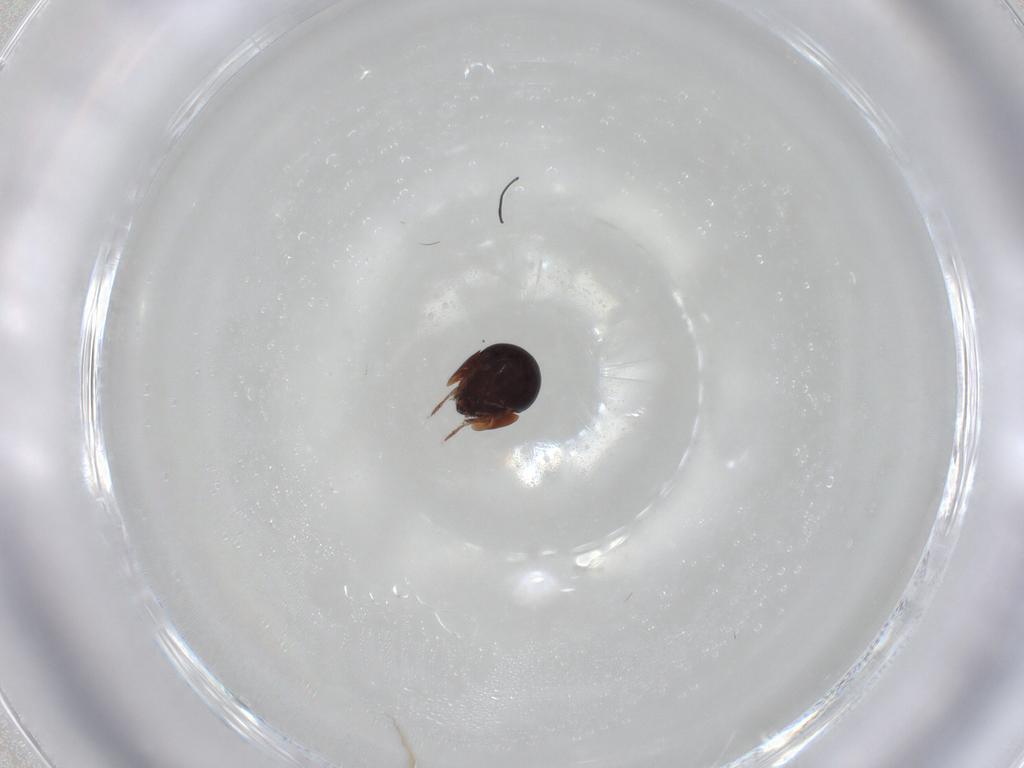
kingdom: Animalia
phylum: Arthropoda
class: Arachnida
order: Sarcoptiformes
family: Galumnidae
